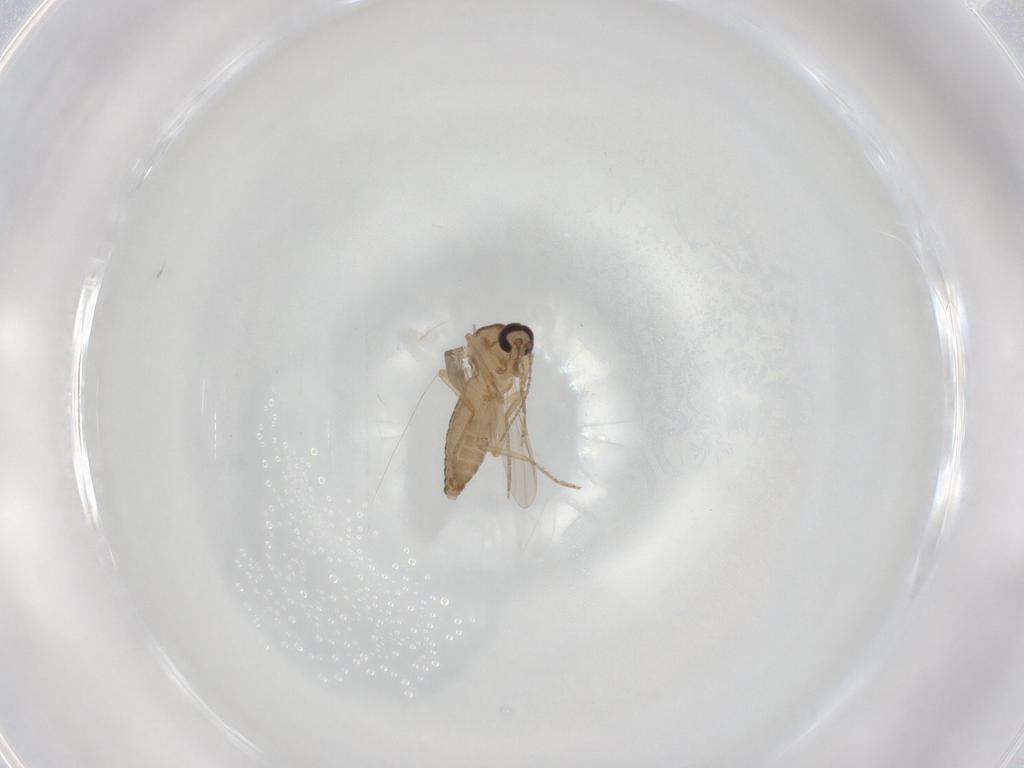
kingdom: Animalia
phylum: Arthropoda
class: Insecta
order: Diptera
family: Ceratopogonidae
